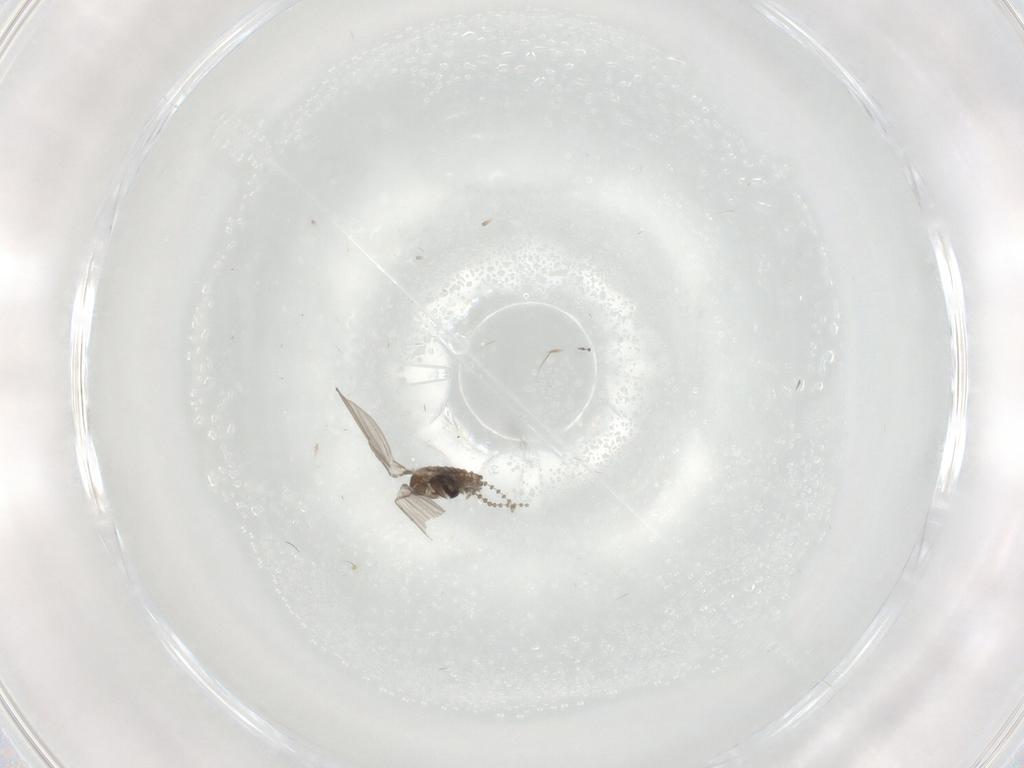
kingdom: Animalia
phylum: Arthropoda
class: Insecta
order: Diptera
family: Psychodidae
